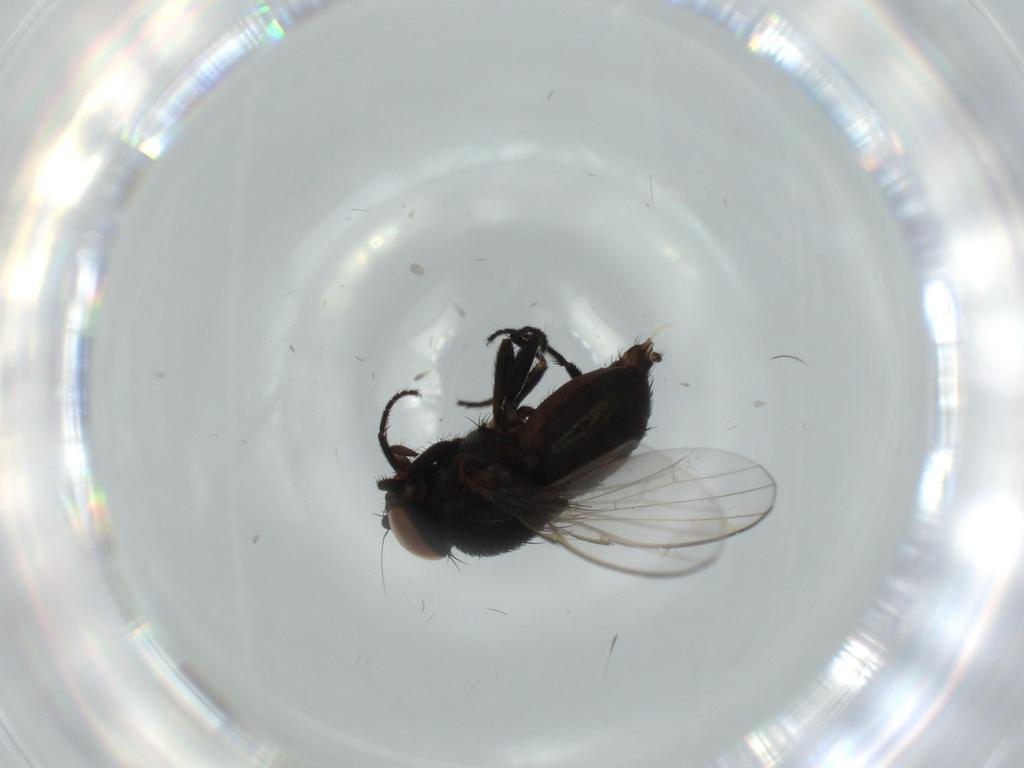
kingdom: Animalia
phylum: Arthropoda
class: Insecta
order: Diptera
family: Milichiidae
